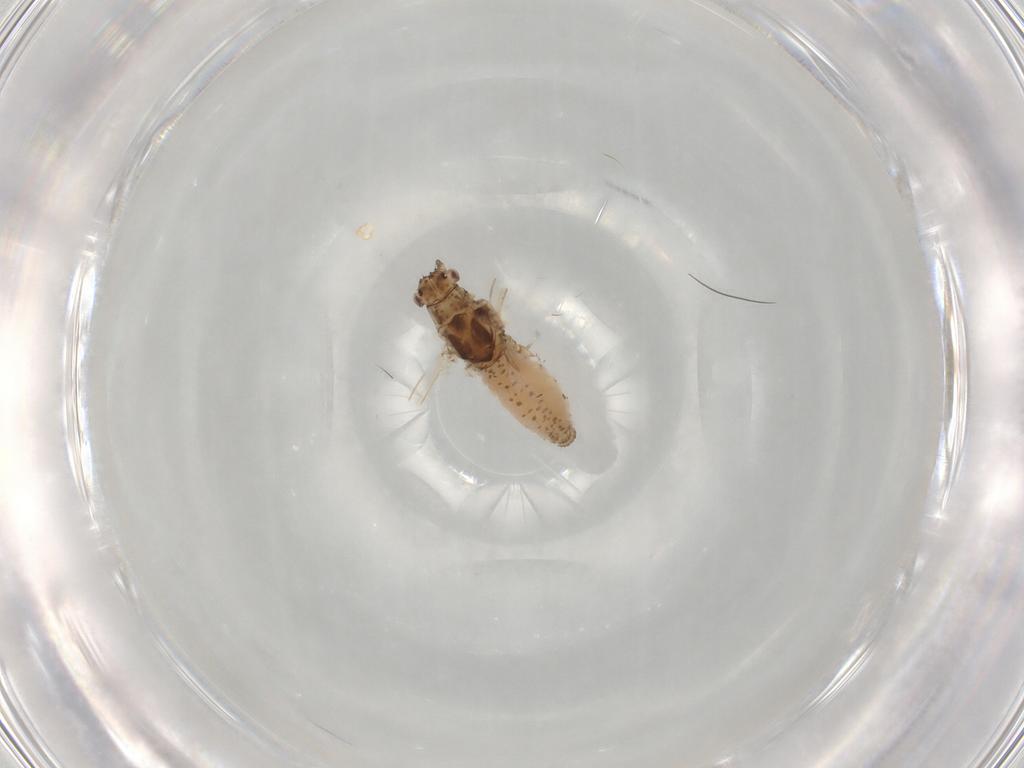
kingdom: Animalia
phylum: Arthropoda
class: Insecta
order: Hemiptera
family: Aphididae
